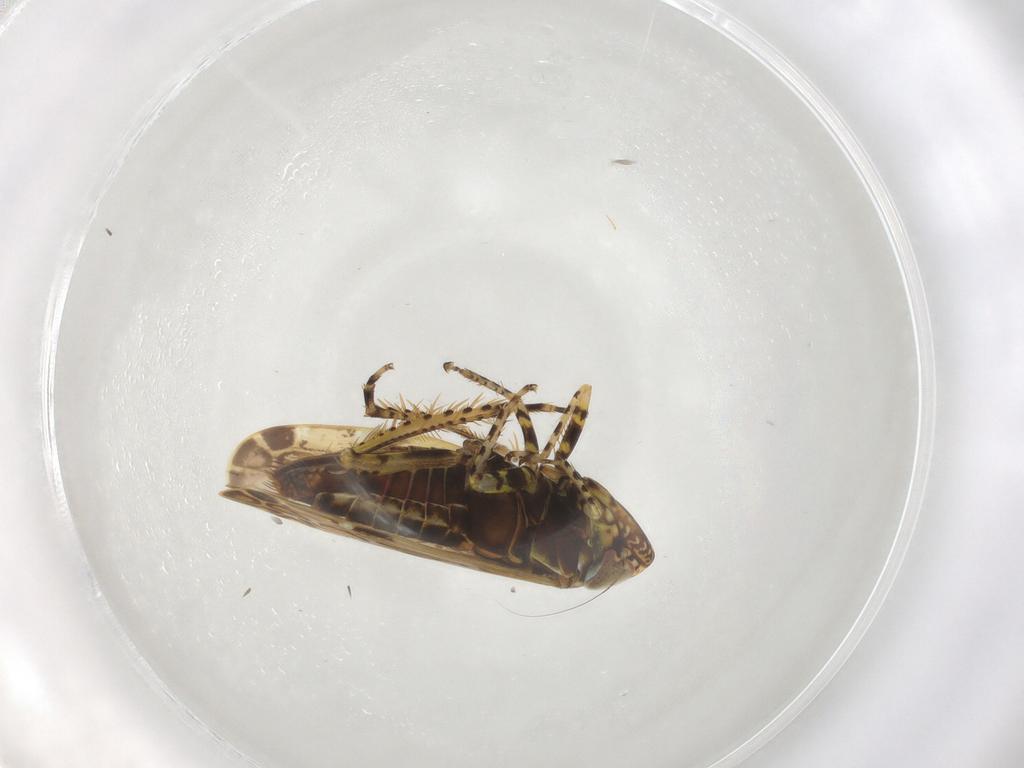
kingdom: Animalia
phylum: Arthropoda
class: Insecta
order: Hemiptera
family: Cicadellidae
